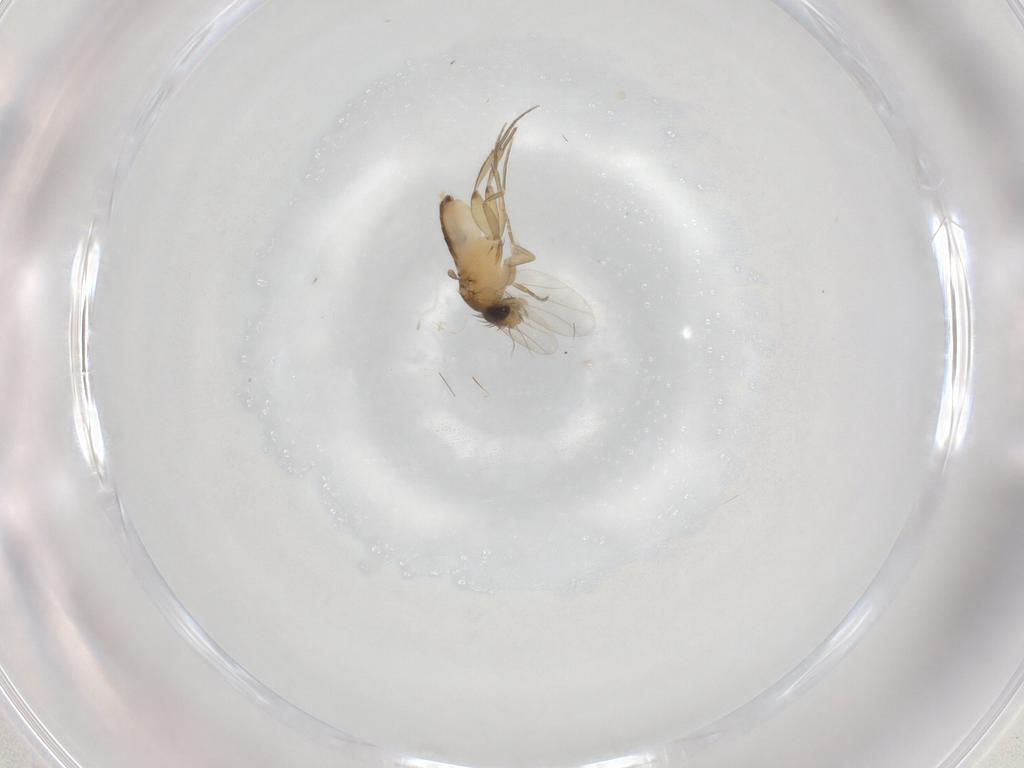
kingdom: Animalia
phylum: Arthropoda
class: Insecta
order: Diptera
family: Phoridae
